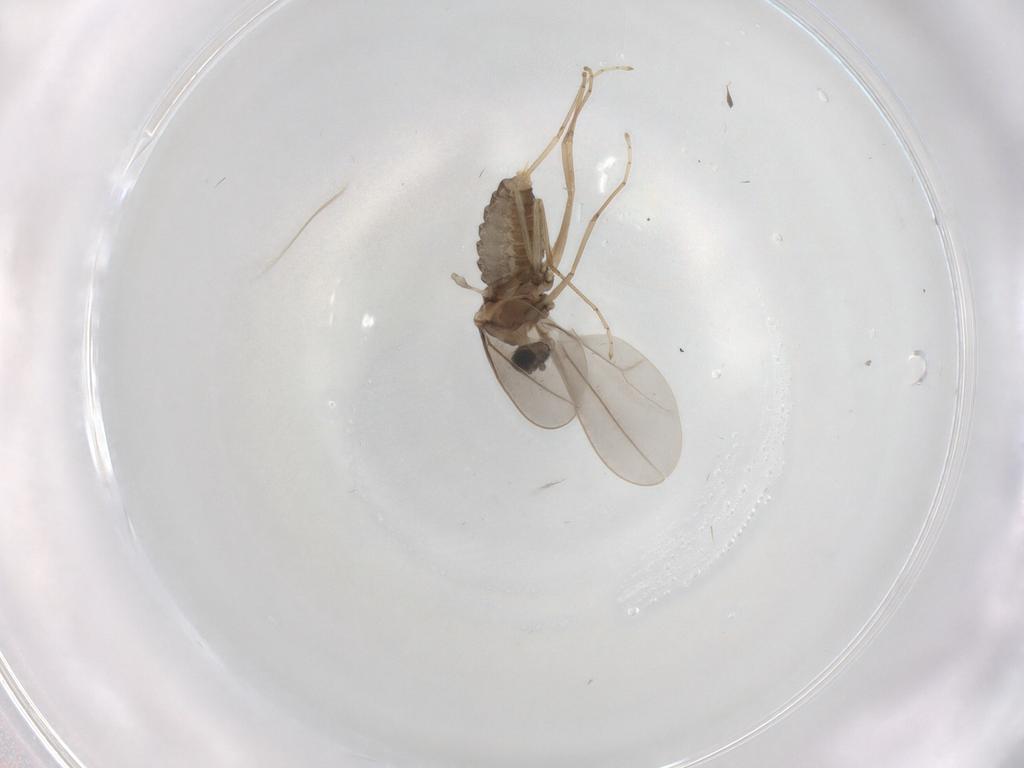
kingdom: Animalia
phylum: Arthropoda
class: Insecta
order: Diptera
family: Cecidomyiidae
